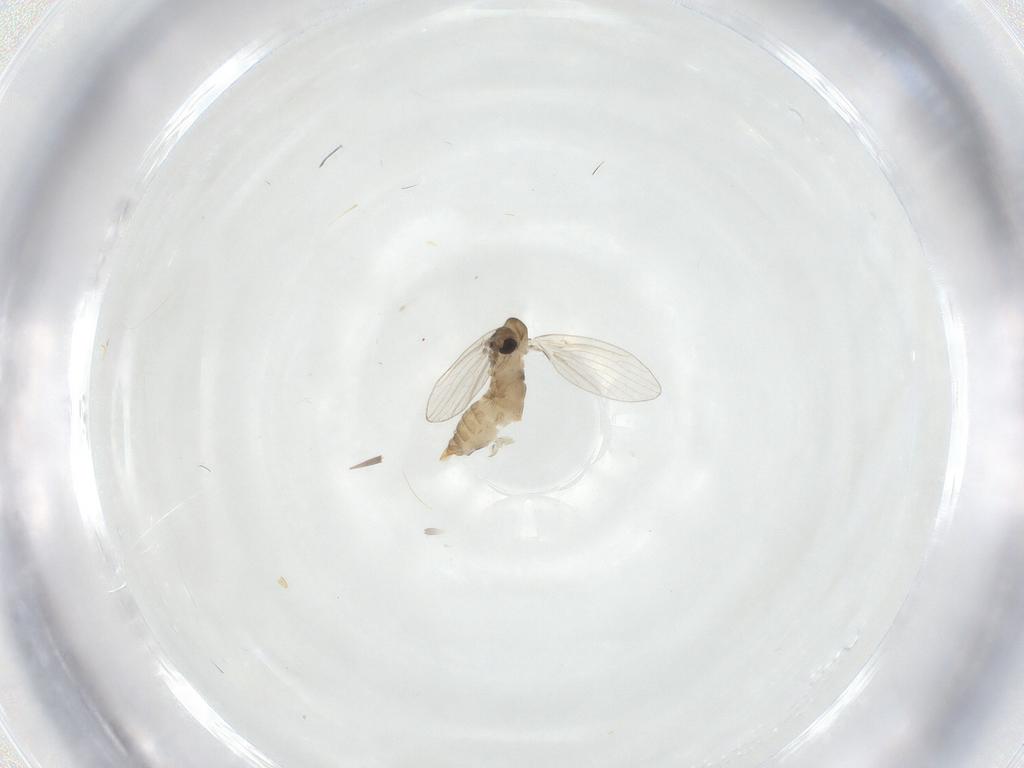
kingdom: Animalia
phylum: Arthropoda
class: Insecta
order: Diptera
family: Psychodidae
